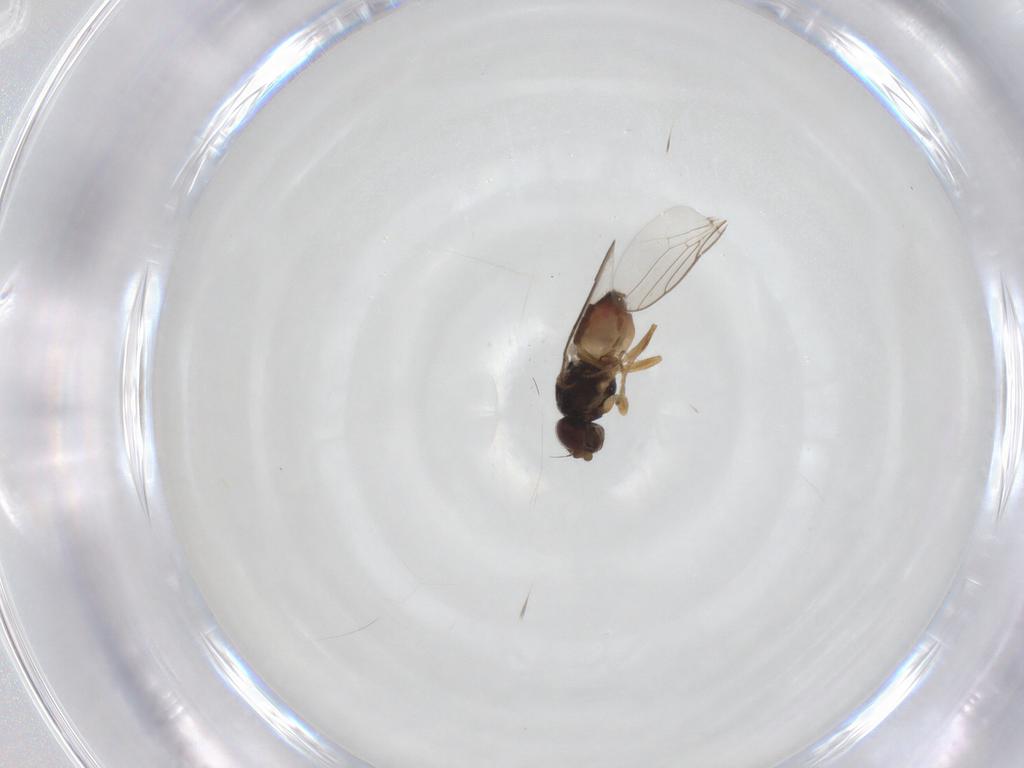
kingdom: Animalia
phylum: Arthropoda
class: Insecta
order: Diptera
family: Chloropidae
